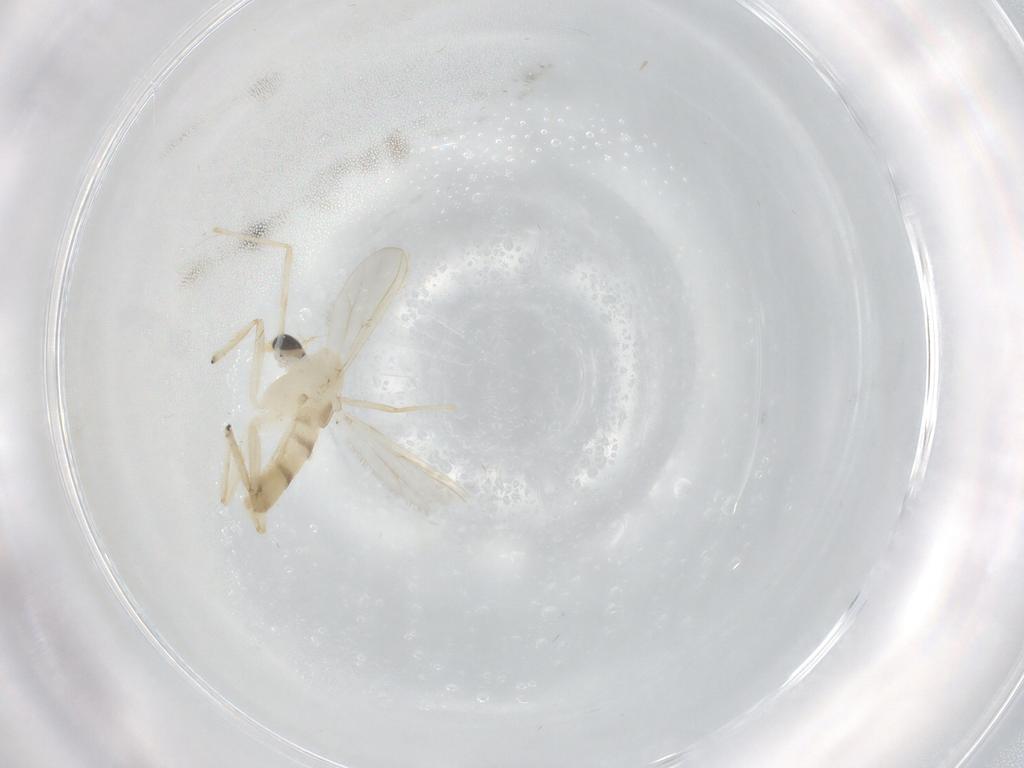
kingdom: Animalia
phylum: Arthropoda
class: Insecta
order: Diptera
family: Chironomidae
